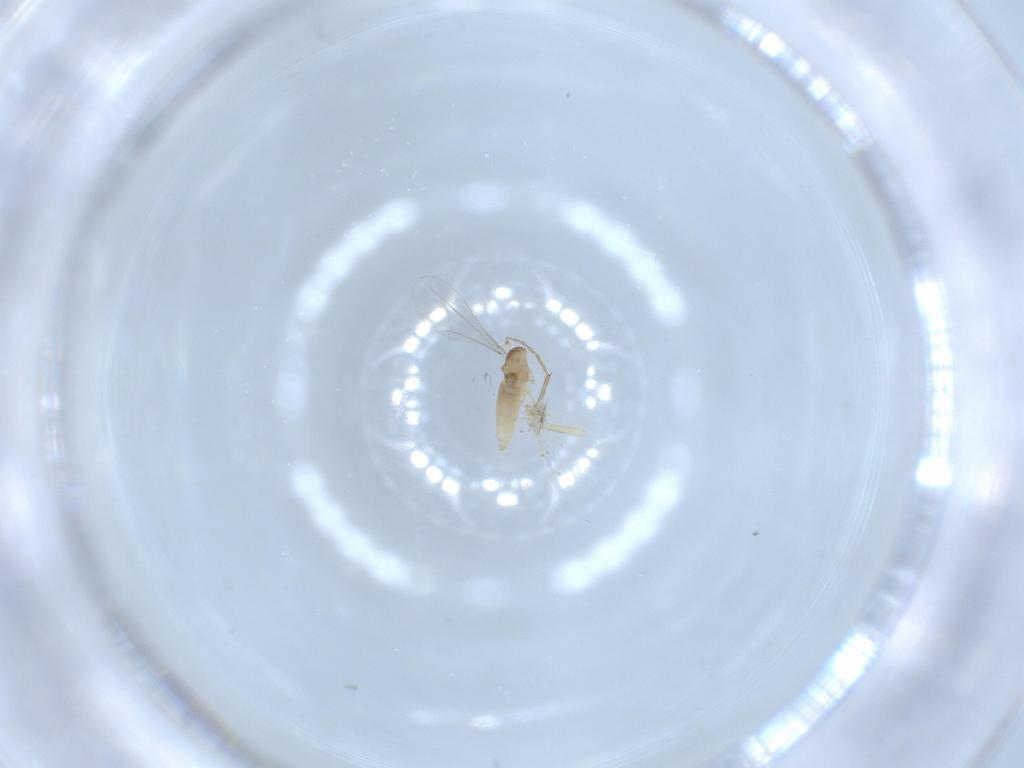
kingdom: Animalia
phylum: Arthropoda
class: Insecta
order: Diptera
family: Cecidomyiidae
